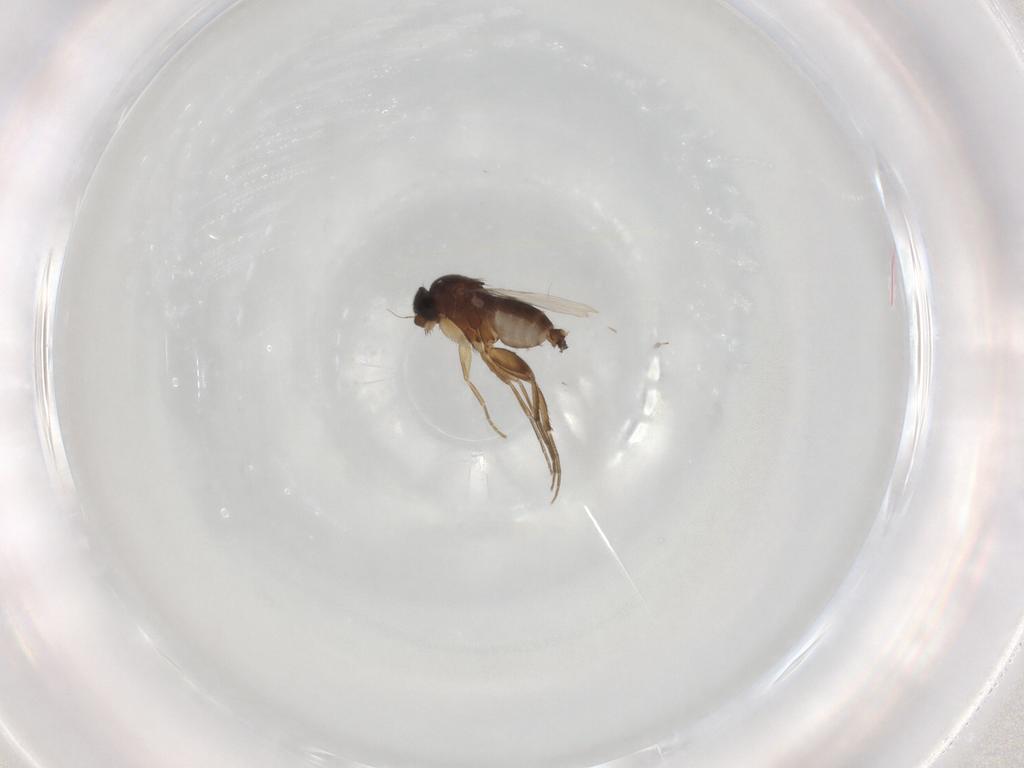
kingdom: Animalia
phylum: Arthropoda
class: Insecta
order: Diptera
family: Phoridae
